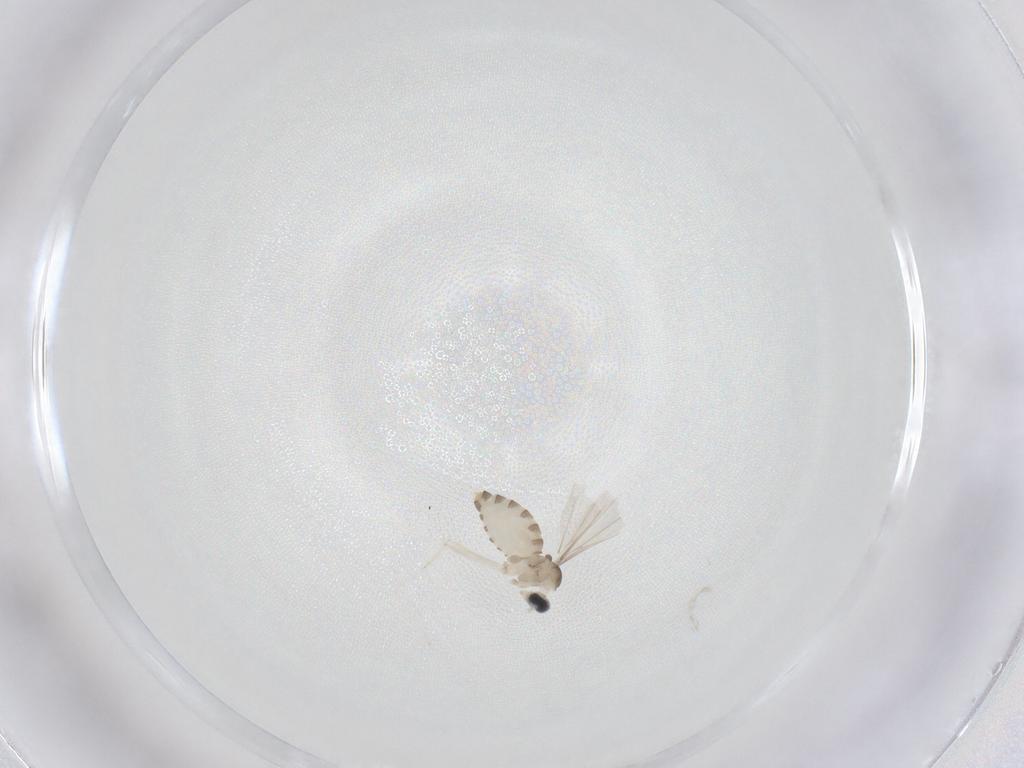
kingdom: Animalia
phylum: Arthropoda
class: Insecta
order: Diptera
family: Cecidomyiidae
